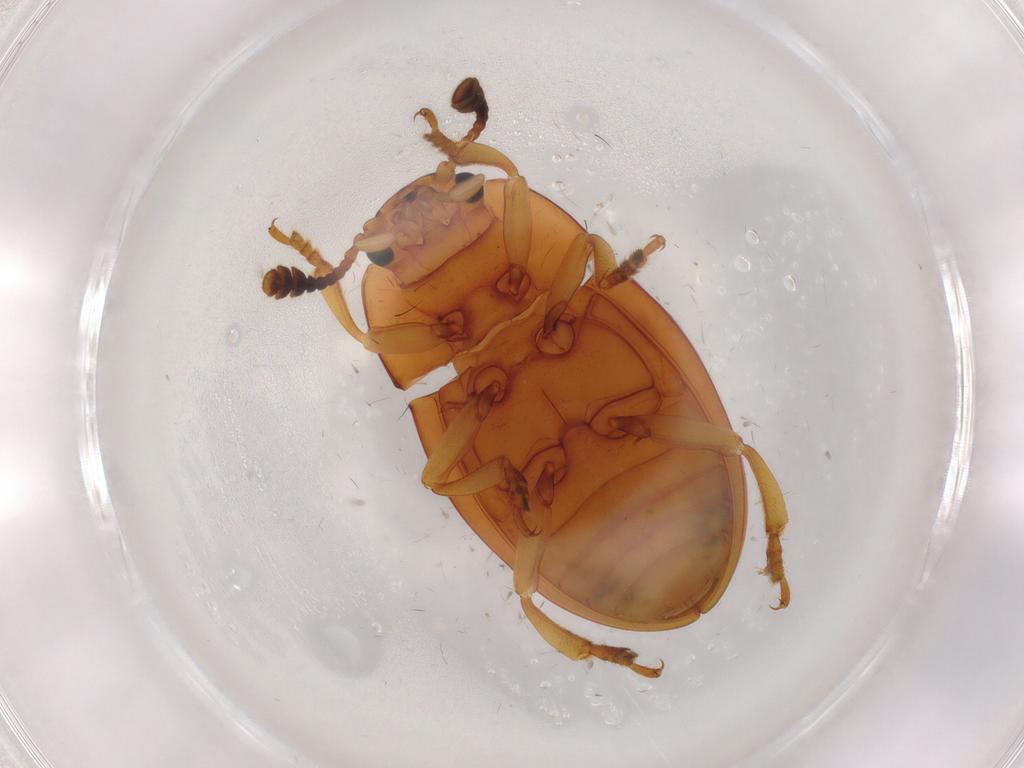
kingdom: Animalia
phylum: Arthropoda
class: Insecta
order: Coleoptera
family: Erotylidae
